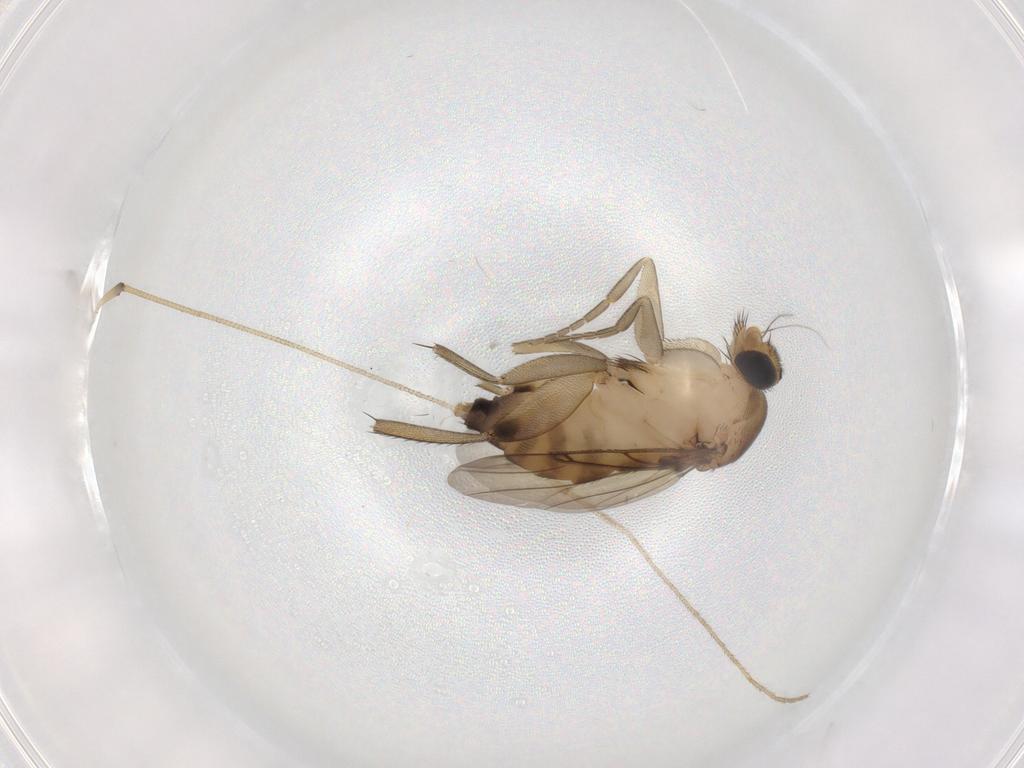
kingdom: Animalia
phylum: Arthropoda
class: Insecta
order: Diptera
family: Phoridae
